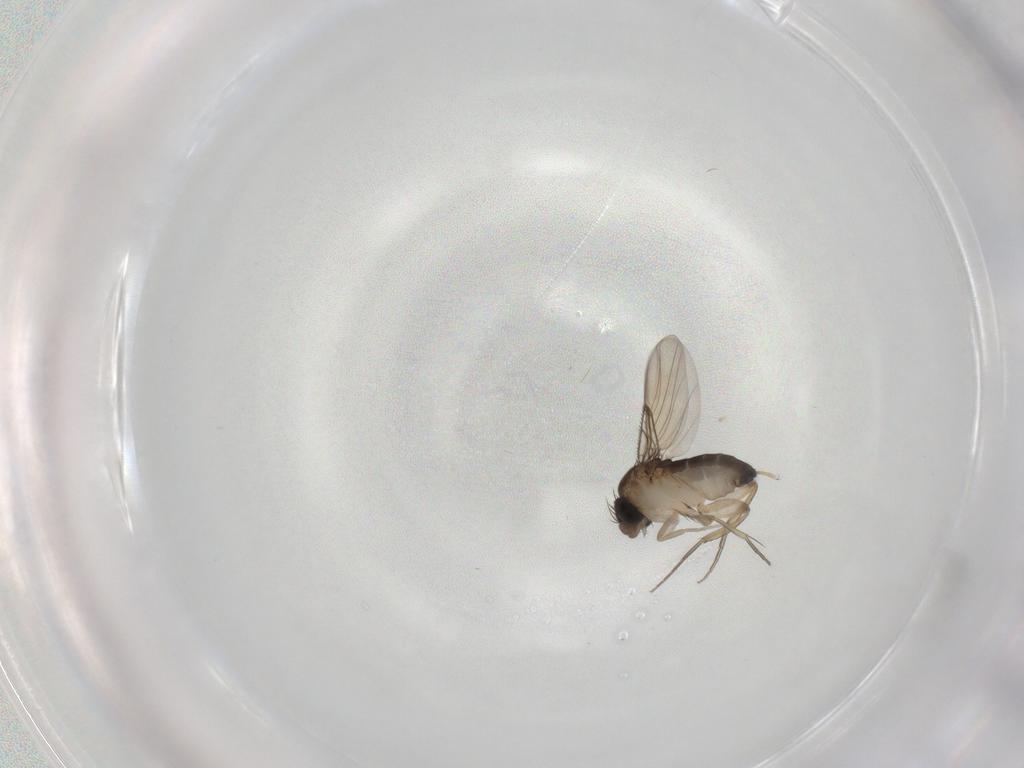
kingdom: Animalia
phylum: Arthropoda
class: Insecta
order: Diptera
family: Phoridae
